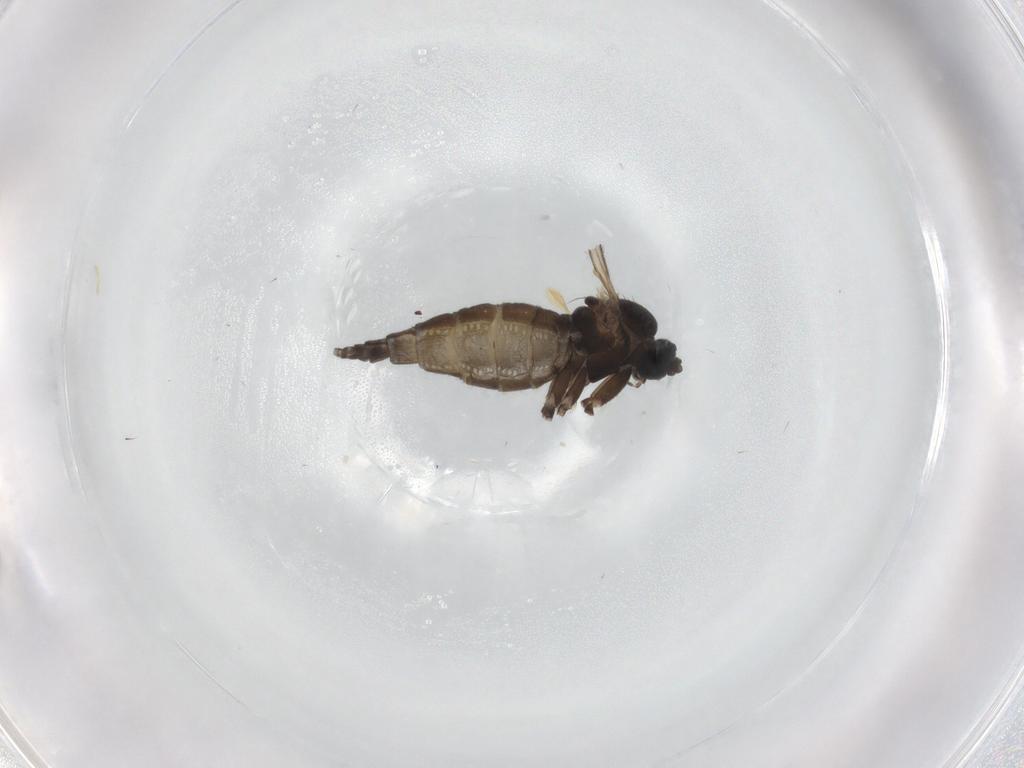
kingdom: Animalia
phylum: Arthropoda
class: Insecta
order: Diptera
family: Sciaridae
